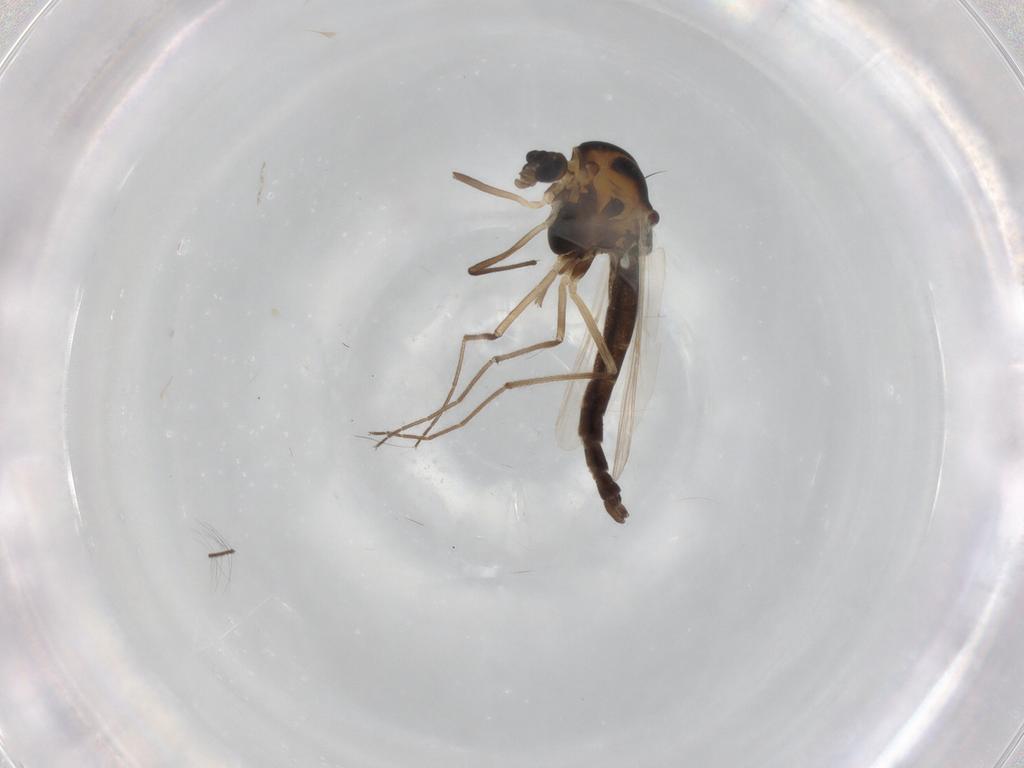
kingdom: Animalia
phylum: Arthropoda
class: Insecta
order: Diptera
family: Chironomidae
